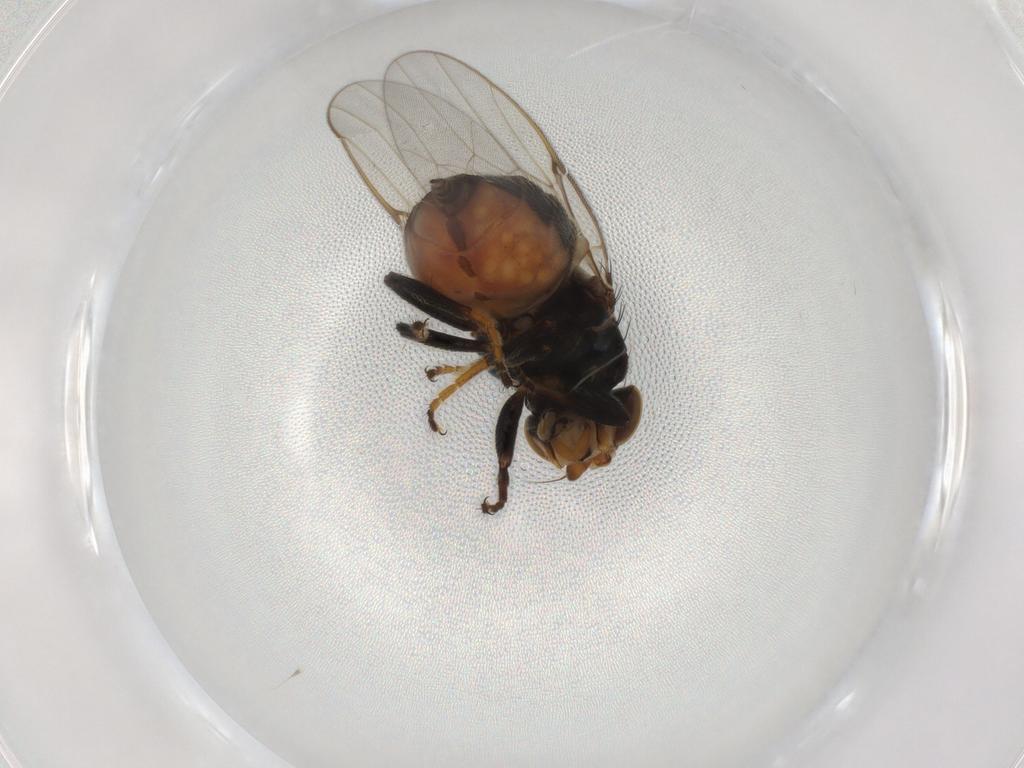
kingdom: Animalia
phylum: Arthropoda
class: Insecta
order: Diptera
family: Chloropidae
